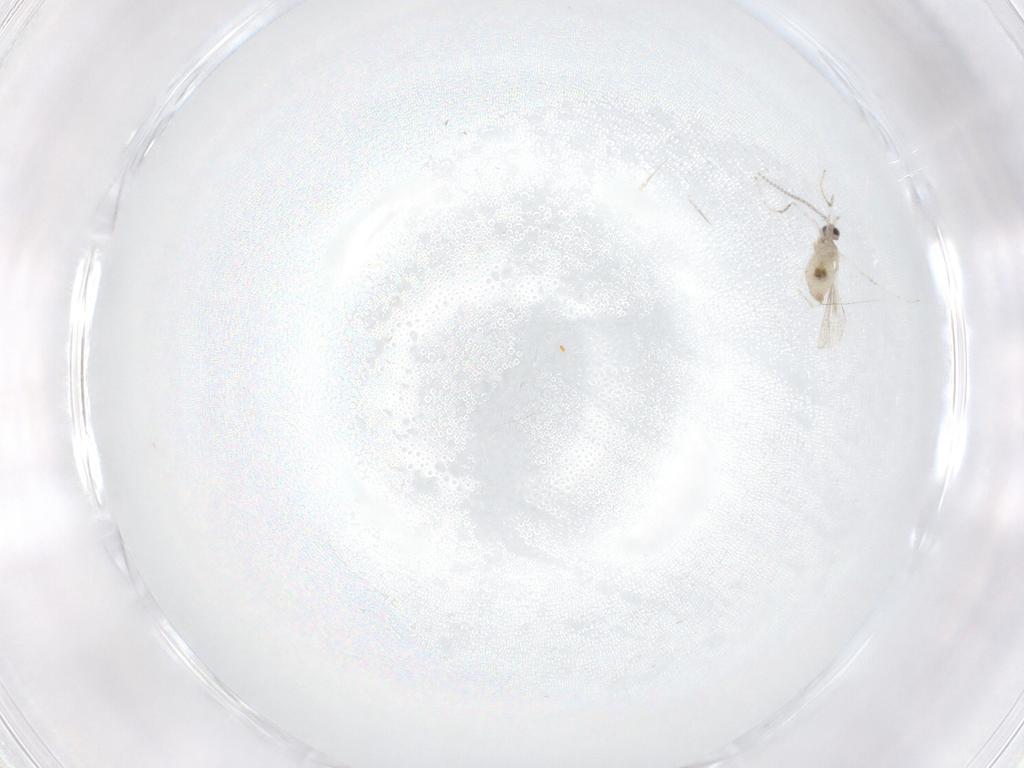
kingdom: Animalia
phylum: Arthropoda
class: Insecta
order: Diptera
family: Cecidomyiidae
